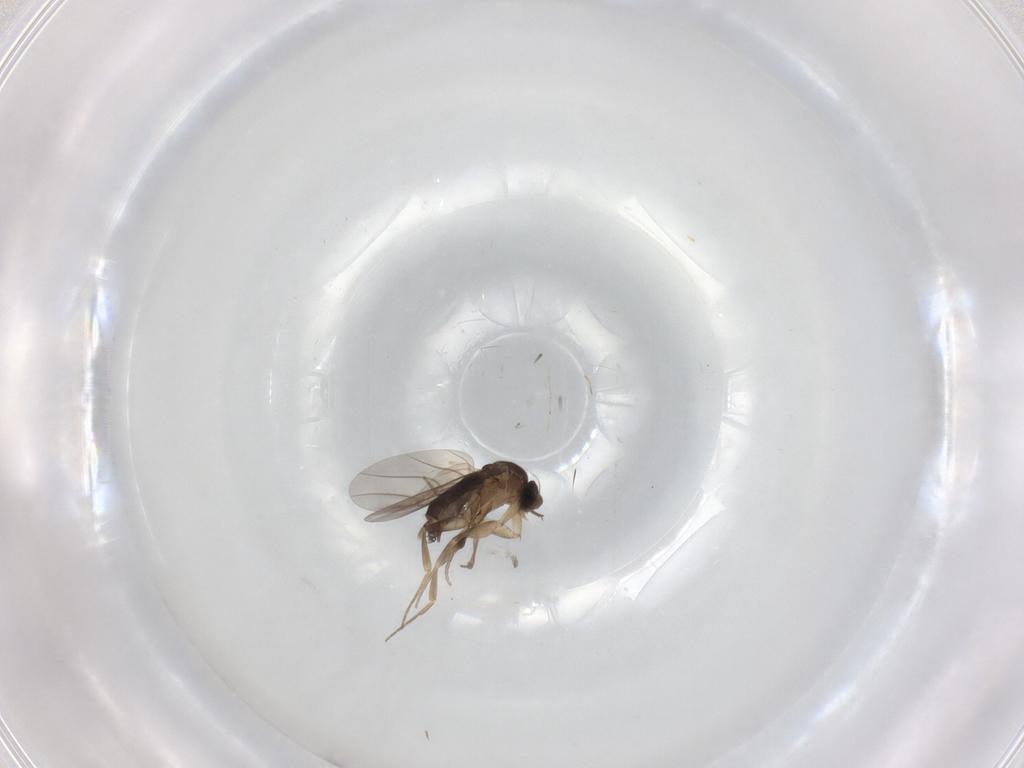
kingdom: Animalia
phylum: Arthropoda
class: Insecta
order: Diptera
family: Phoridae
